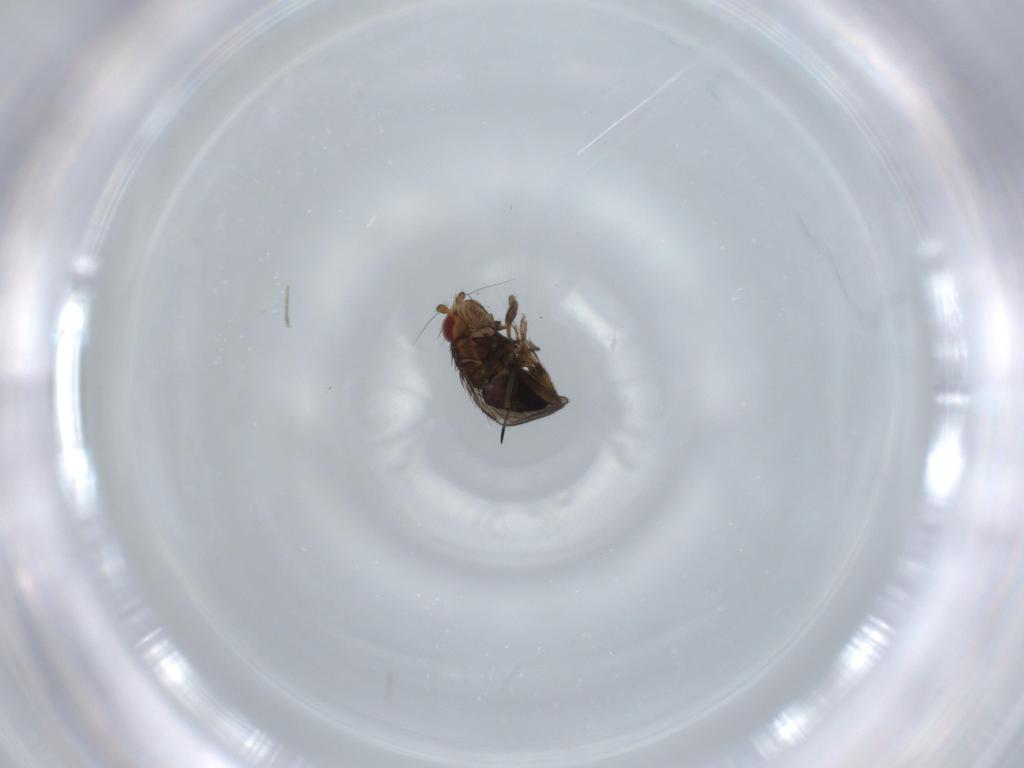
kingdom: Animalia
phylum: Arthropoda
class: Insecta
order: Diptera
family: Phoridae
